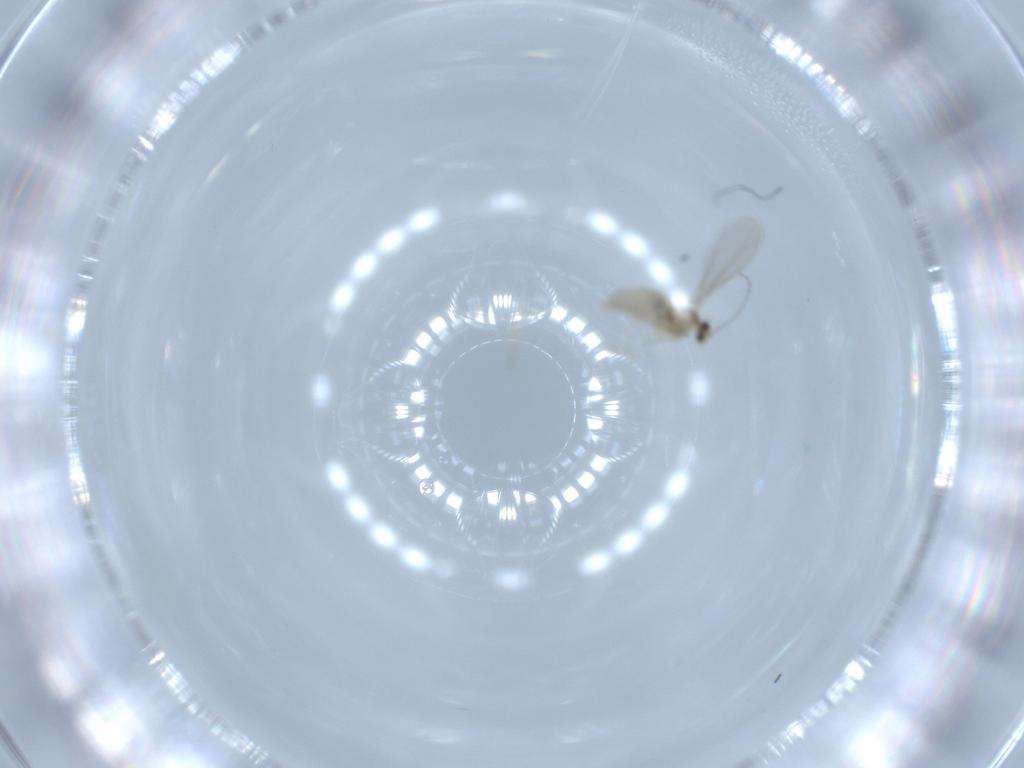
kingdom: Animalia
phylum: Arthropoda
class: Insecta
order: Diptera
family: Cecidomyiidae
